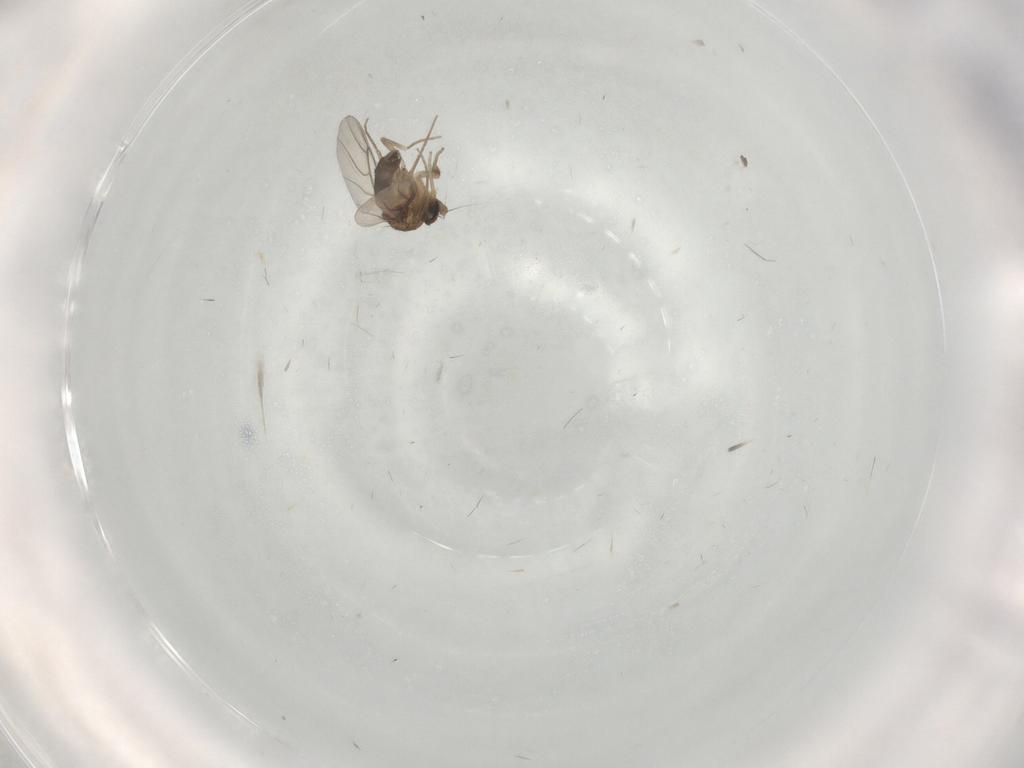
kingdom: Animalia
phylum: Arthropoda
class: Insecta
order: Diptera
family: Phoridae
